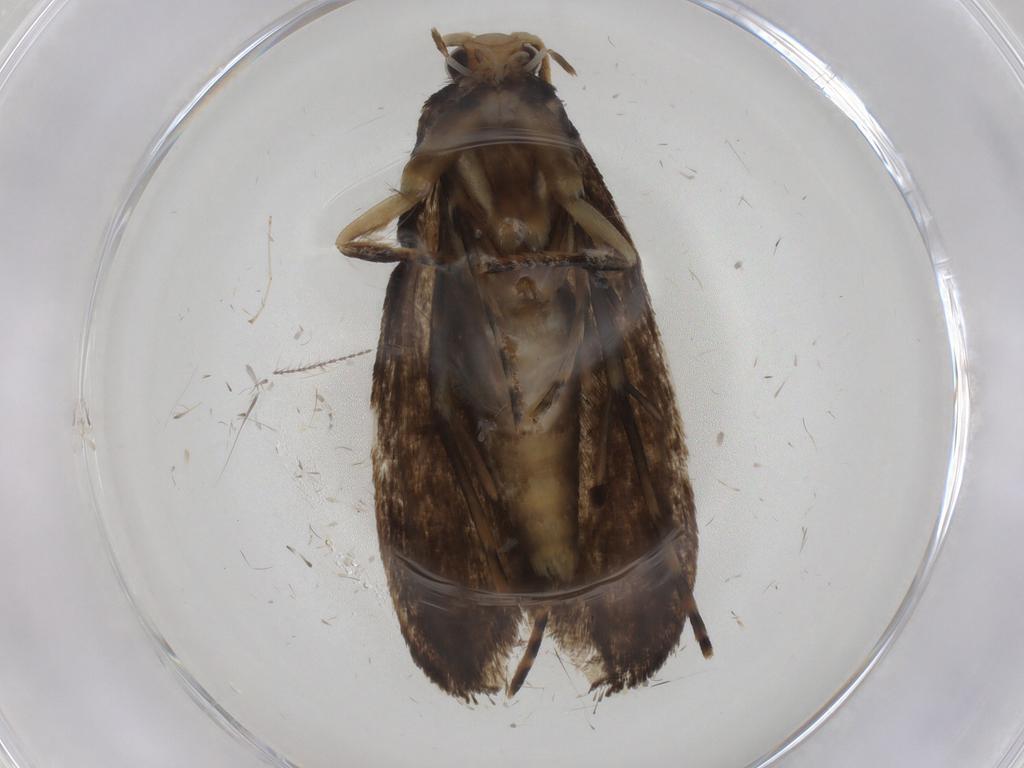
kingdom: Animalia
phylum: Arthropoda
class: Insecta
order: Lepidoptera
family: Tineidae
